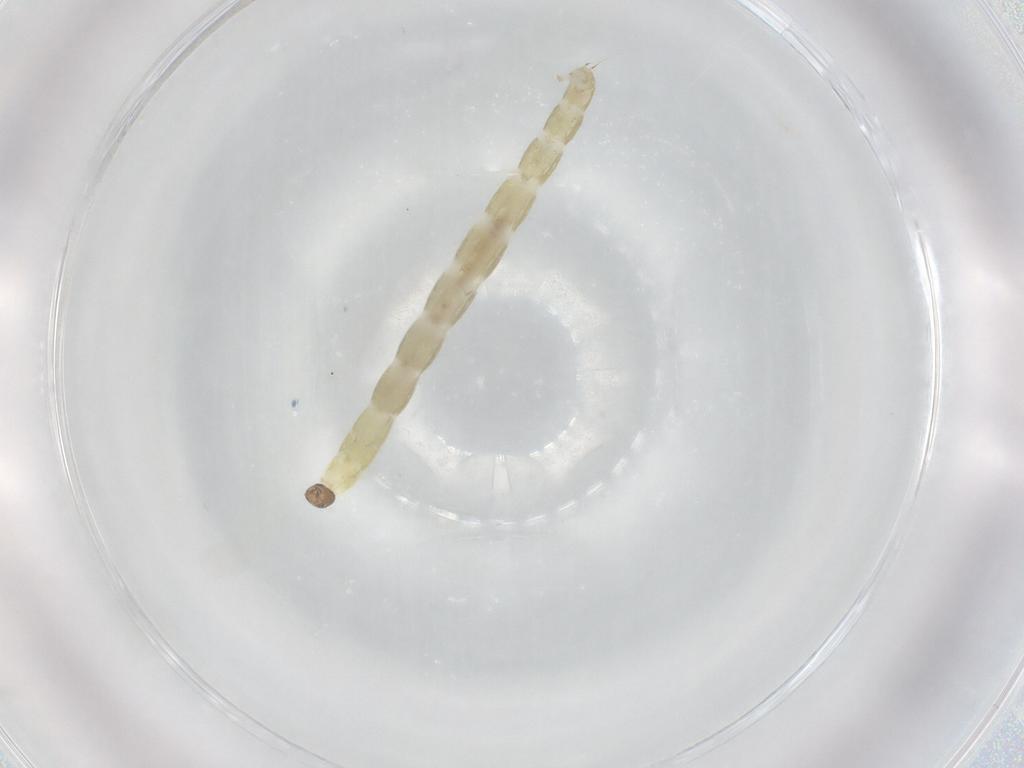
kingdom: Animalia
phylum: Arthropoda
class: Insecta
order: Diptera
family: Chironomidae
